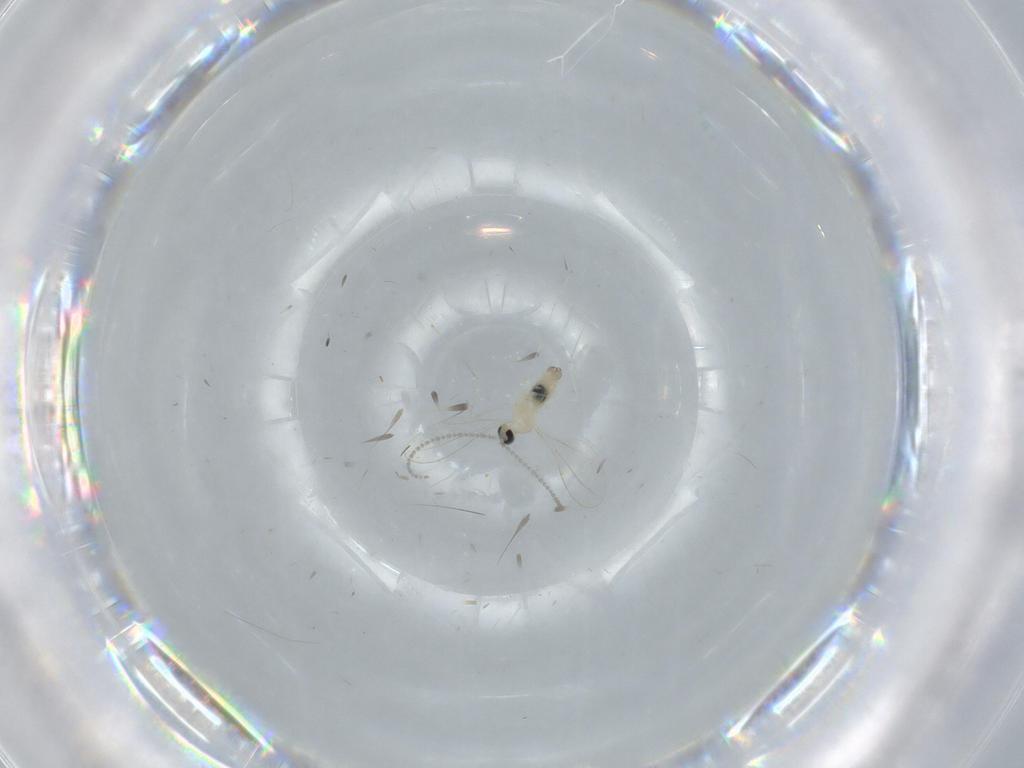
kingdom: Animalia
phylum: Arthropoda
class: Insecta
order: Diptera
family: Cecidomyiidae
